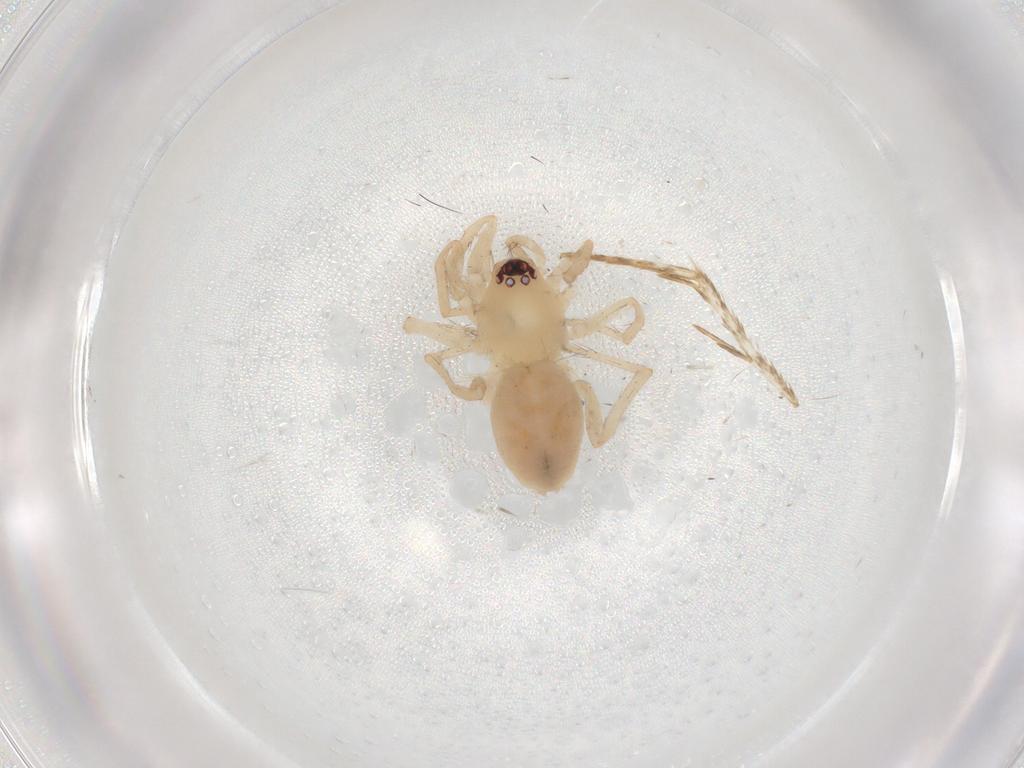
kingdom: Animalia
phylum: Arthropoda
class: Arachnida
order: Araneae
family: Gnaphosidae
